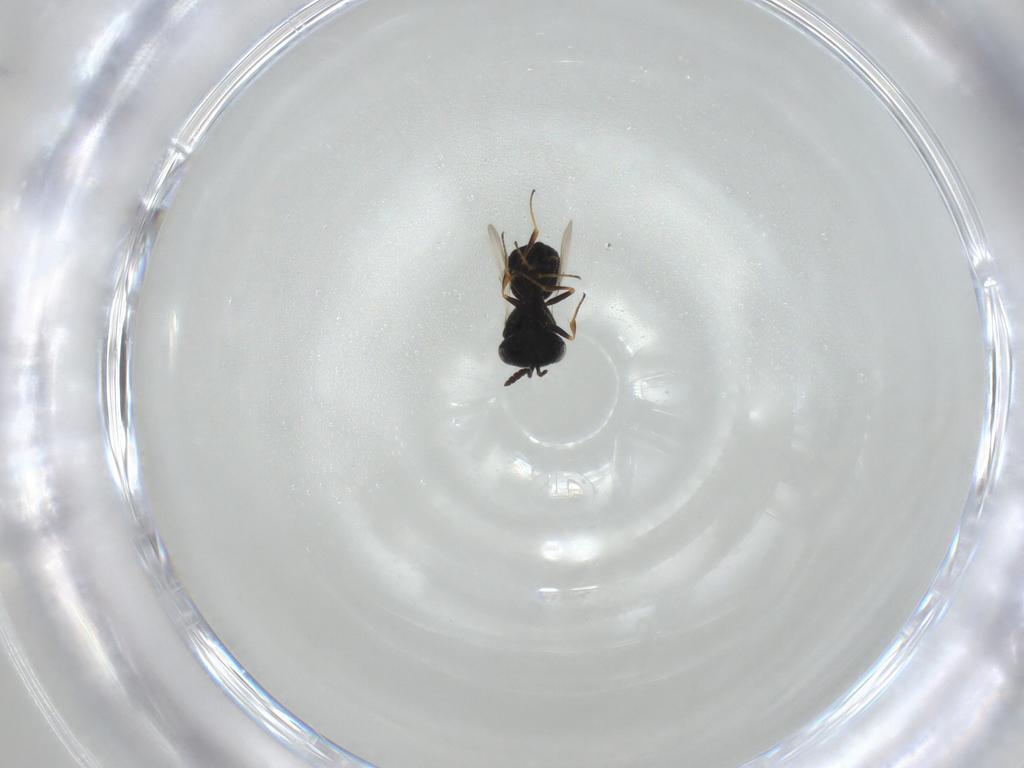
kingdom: Animalia
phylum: Arthropoda
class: Insecta
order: Hymenoptera
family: Scelionidae
